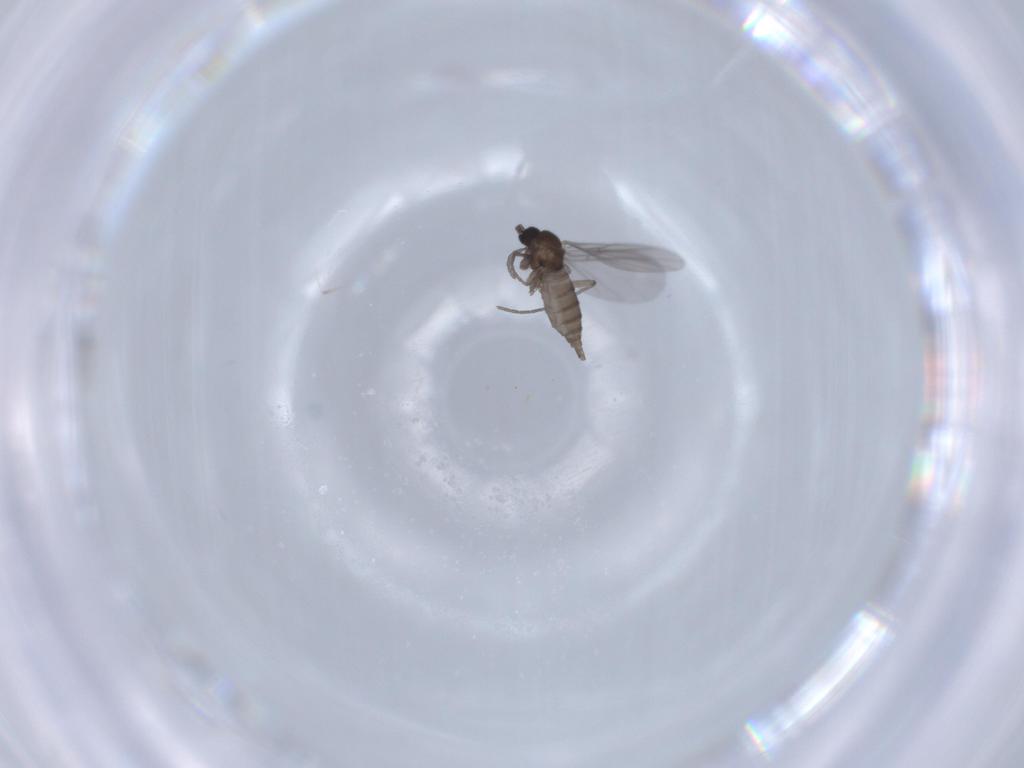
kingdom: Animalia
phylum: Arthropoda
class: Insecta
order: Diptera
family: Sciaridae
